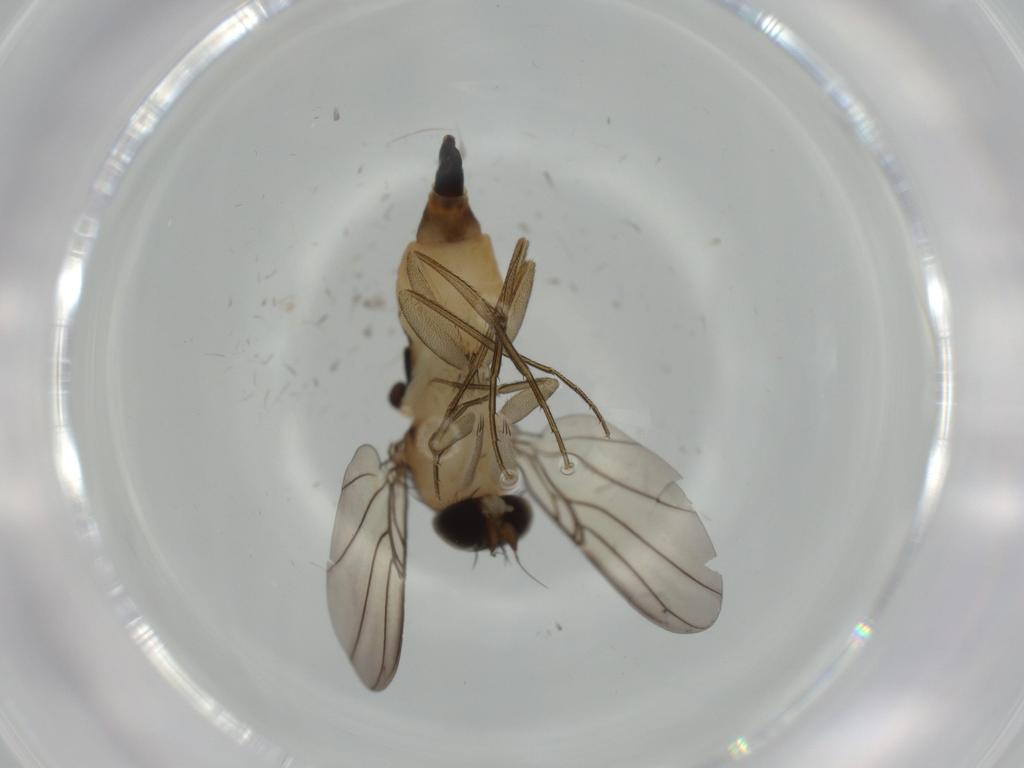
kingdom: Animalia
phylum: Arthropoda
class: Insecta
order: Diptera
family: Phoridae
